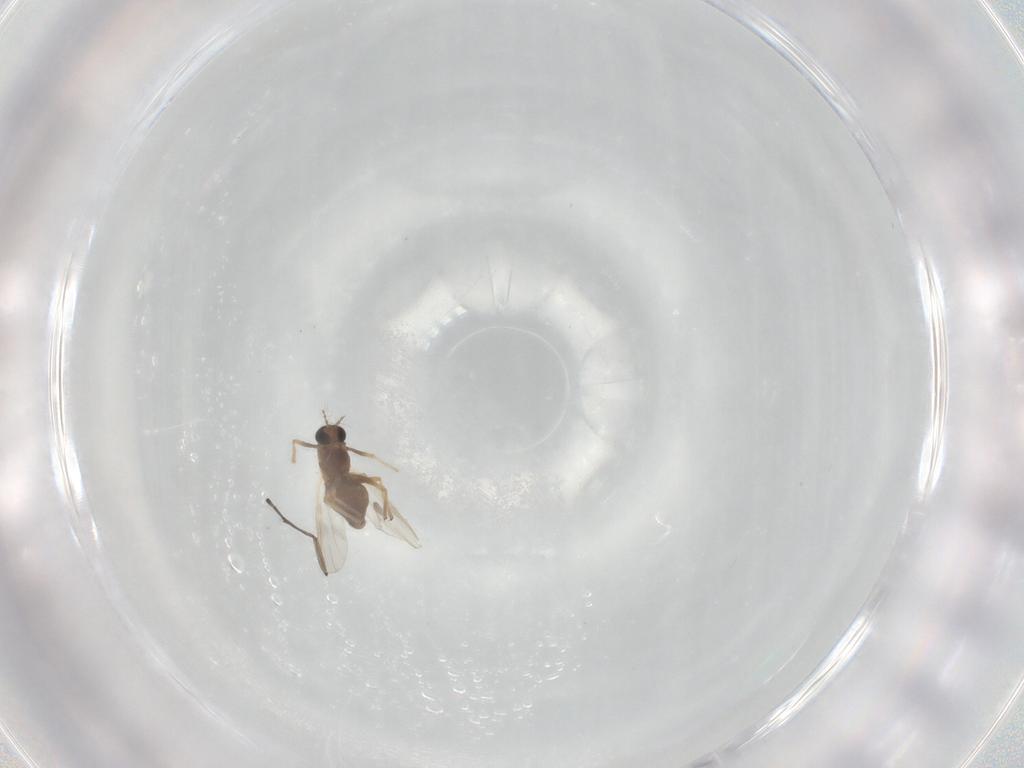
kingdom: Animalia
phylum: Arthropoda
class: Insecta
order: Diptera
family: Chironomidae
